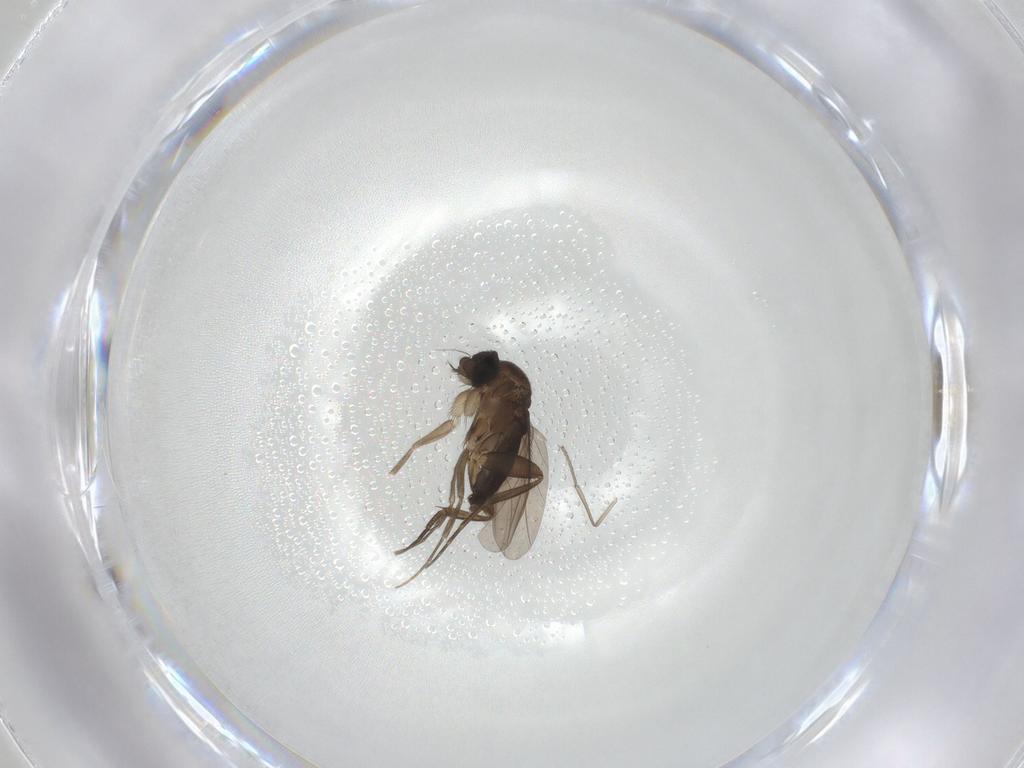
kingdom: Animalia
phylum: Arthropoda
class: Insecta
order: Diptera
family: Phoridae
